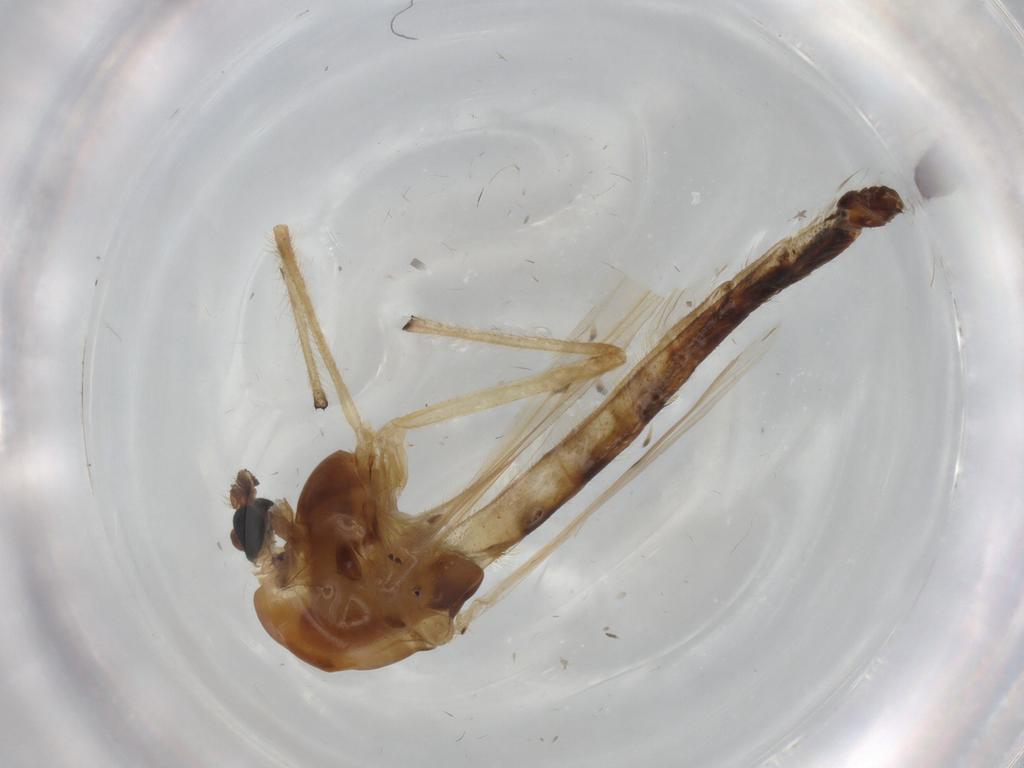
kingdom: Animalia
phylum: Arthropoda
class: Insecta
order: Diptera
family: Chironomidae
